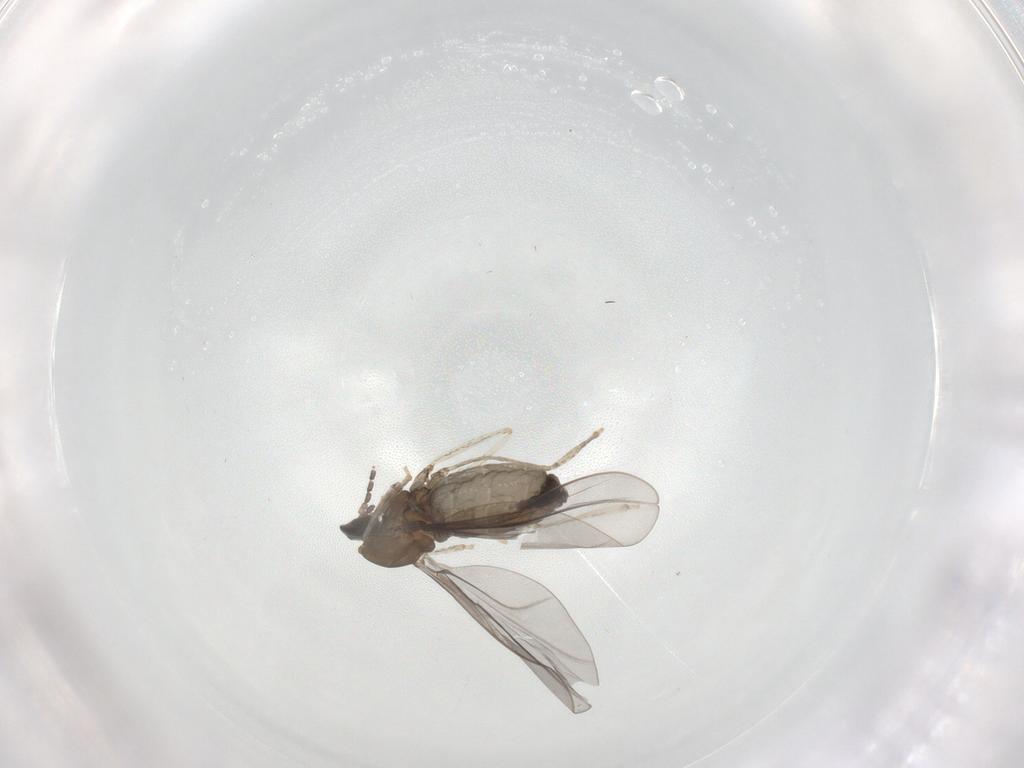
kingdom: Animalia
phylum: Arthropoda
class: Insecta
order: Diptera
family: Cecidomyiidae
